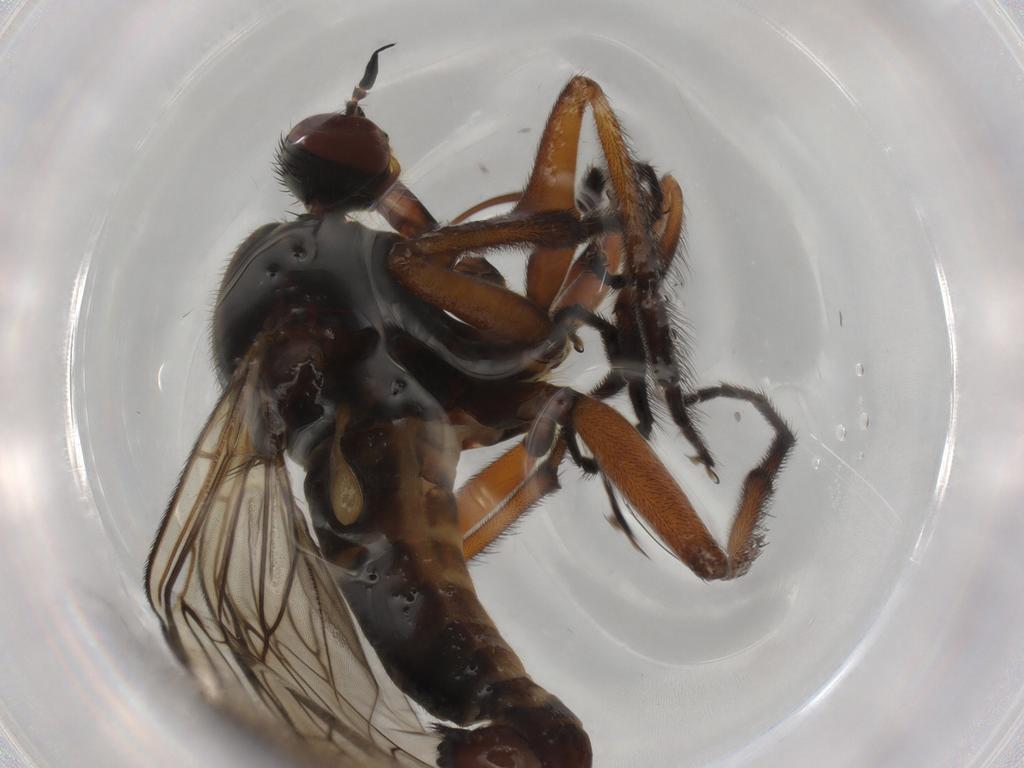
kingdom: Animalia
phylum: Arthropoda
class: Insecta
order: Diptera
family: Empididae
